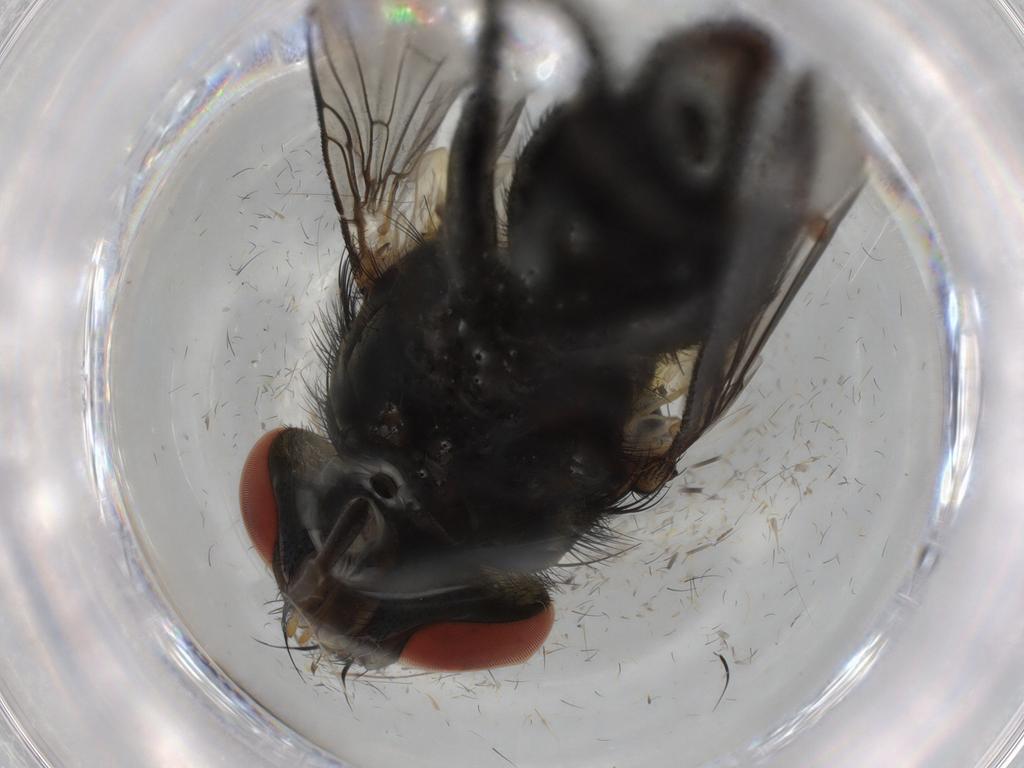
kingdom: Animalia
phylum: Arthropoda
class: Insecta
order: Diptera
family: Sarcophagidae
